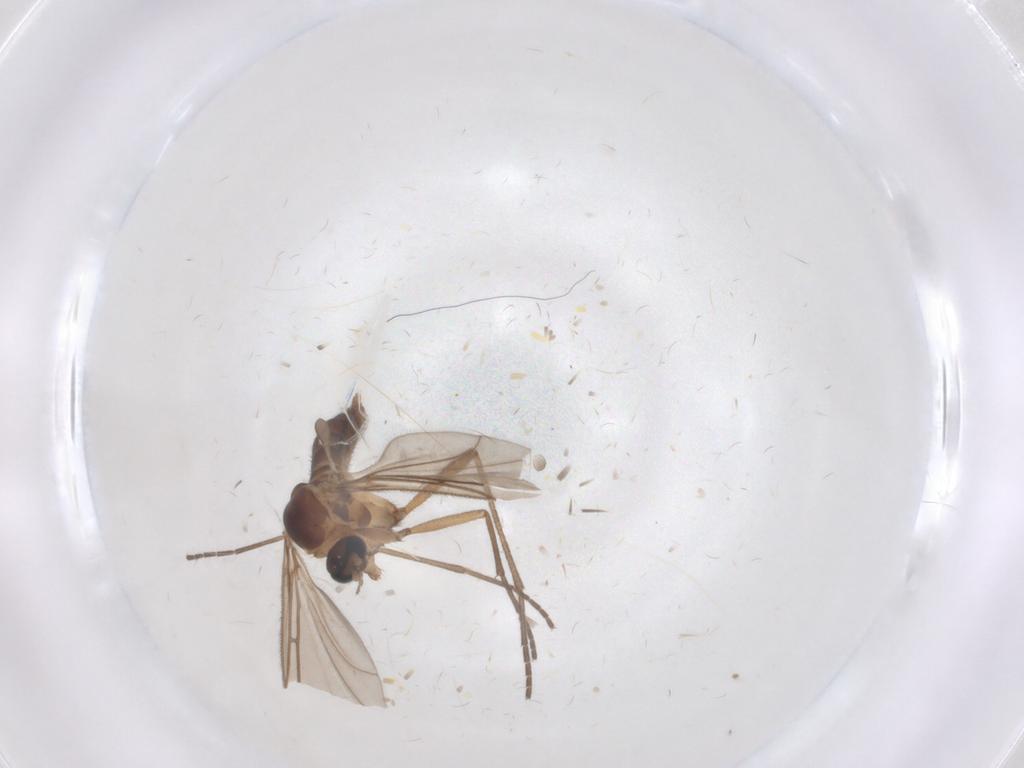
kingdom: Animalia
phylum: Arthropoda
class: Insecta
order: Diptera
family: Sciaridae
